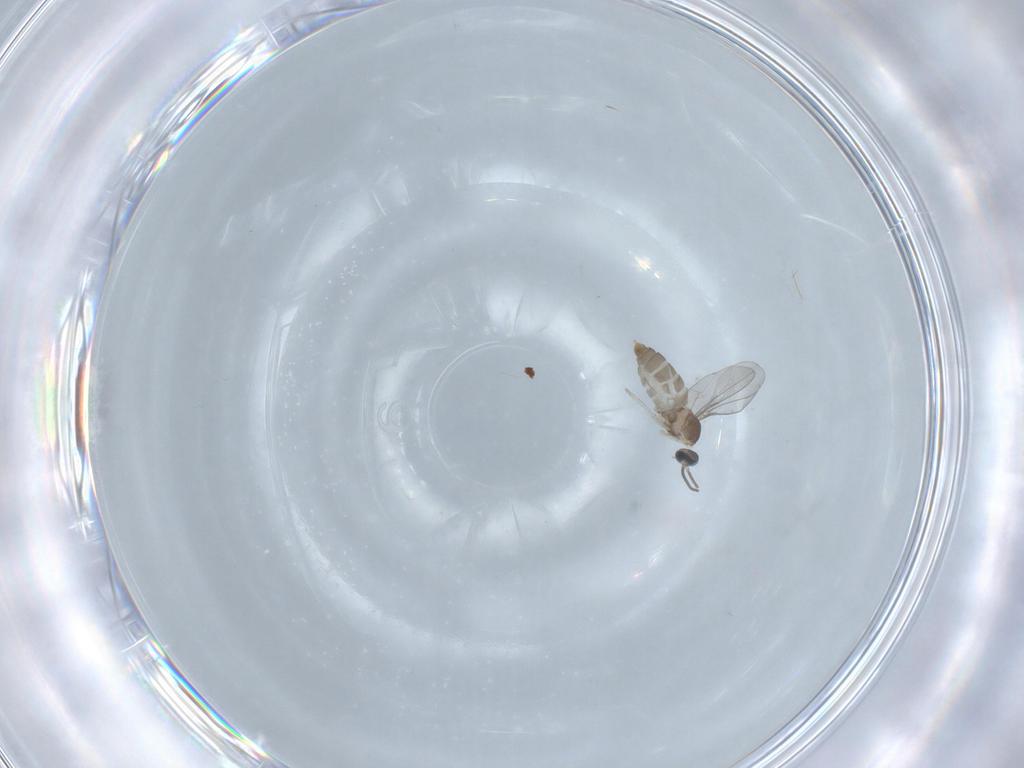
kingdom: Animalia
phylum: Arthropoda
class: Insecta
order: Diptera
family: Cecidomyiidae
